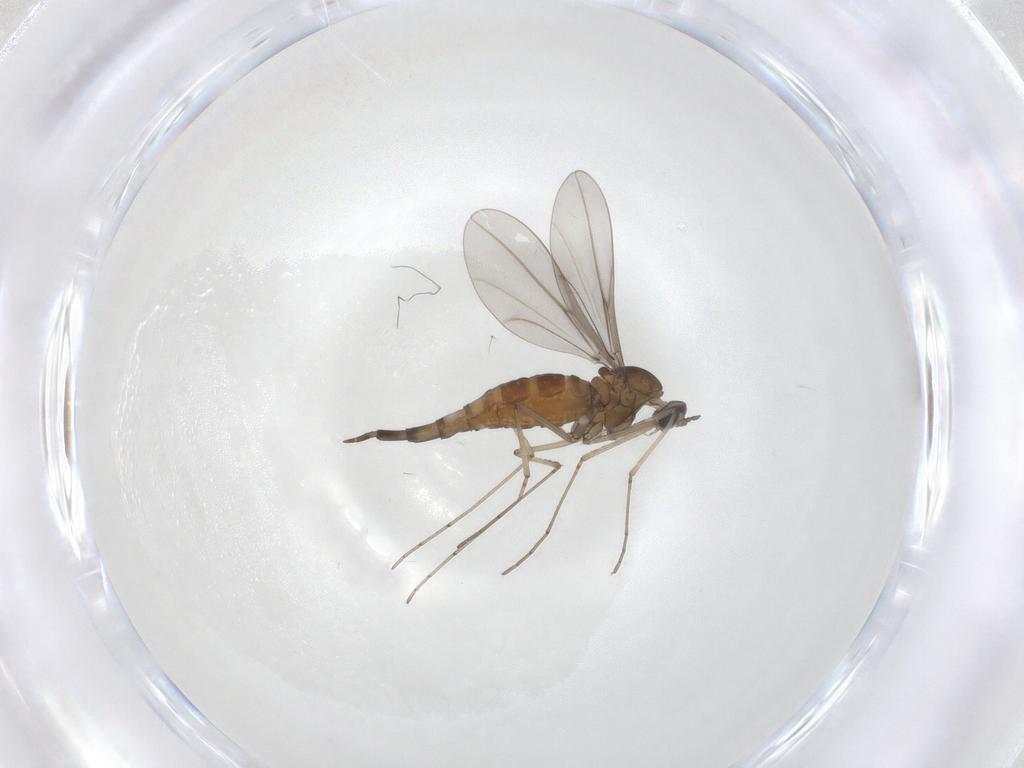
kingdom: Animalia
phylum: Arthropoda
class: Insecta
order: Diptera
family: Cecidomyiidae
